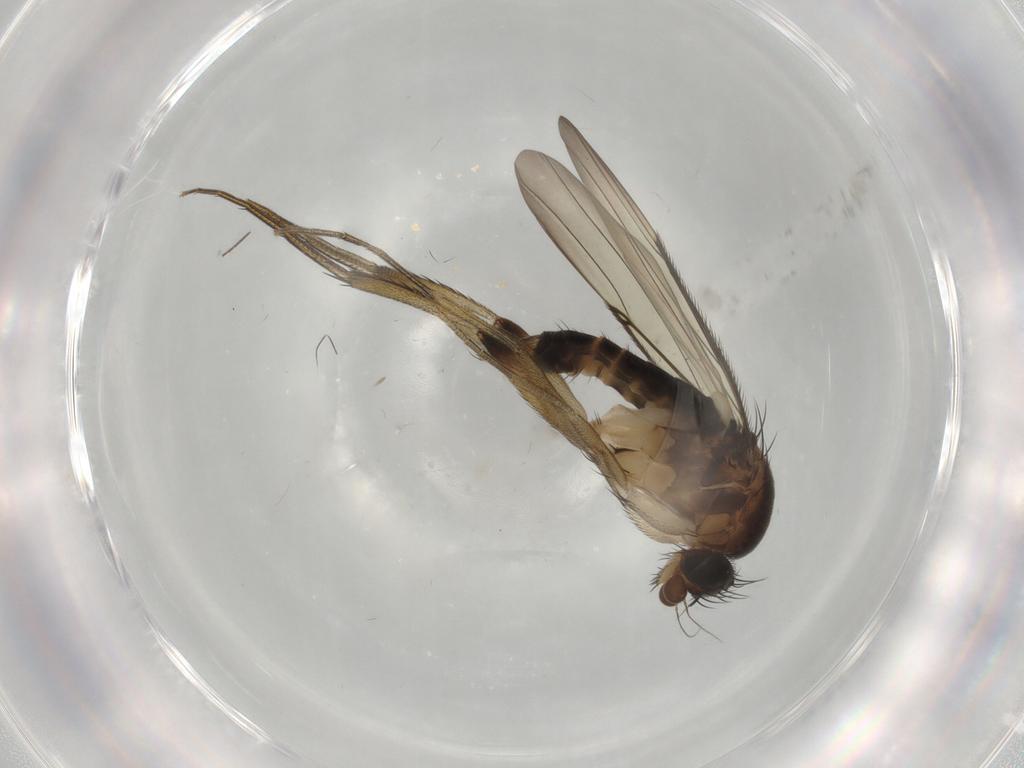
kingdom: Animalia
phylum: Arthropoda
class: Insecta
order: Diptera
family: Phoridae
